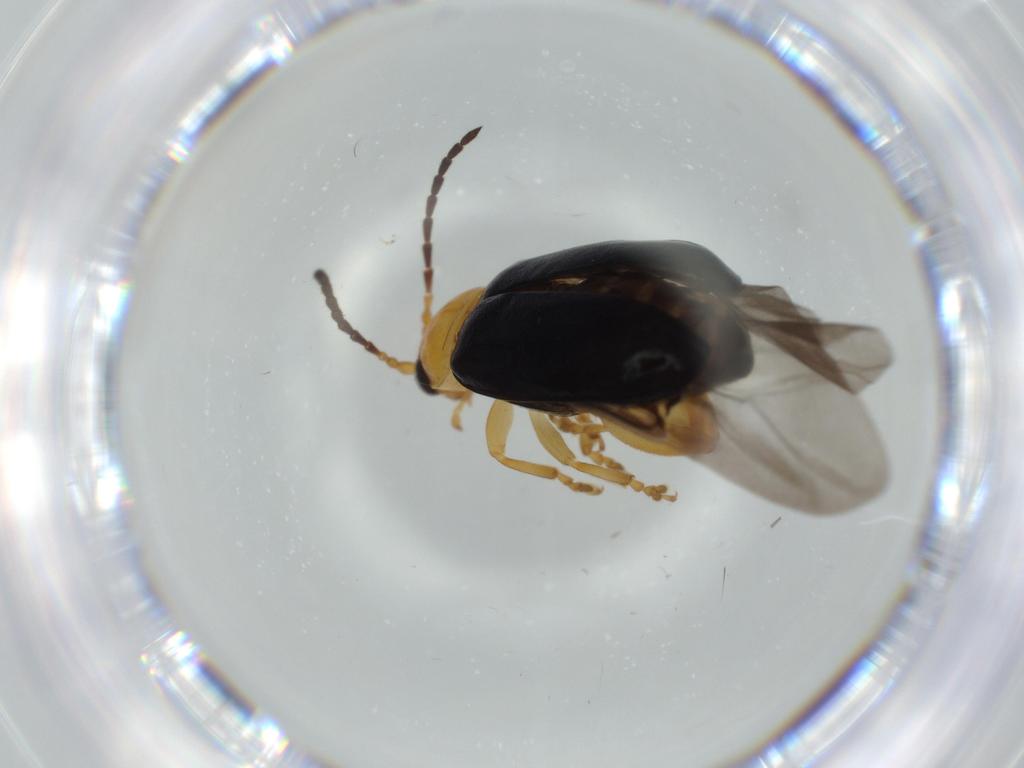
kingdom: Animalia
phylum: Arthropoda
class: Insecta
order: Coleoptera
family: Chrysomelidae
